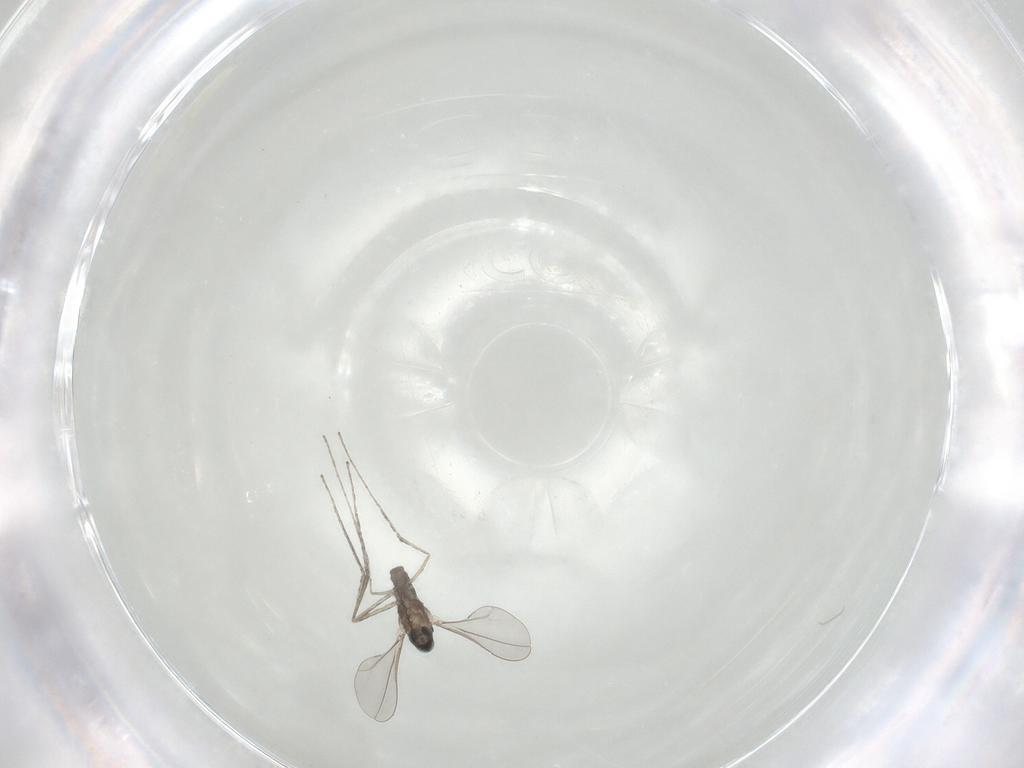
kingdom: Animalia
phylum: Arthropoda
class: Insecta
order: Diptera
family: Cecidomyiidae
